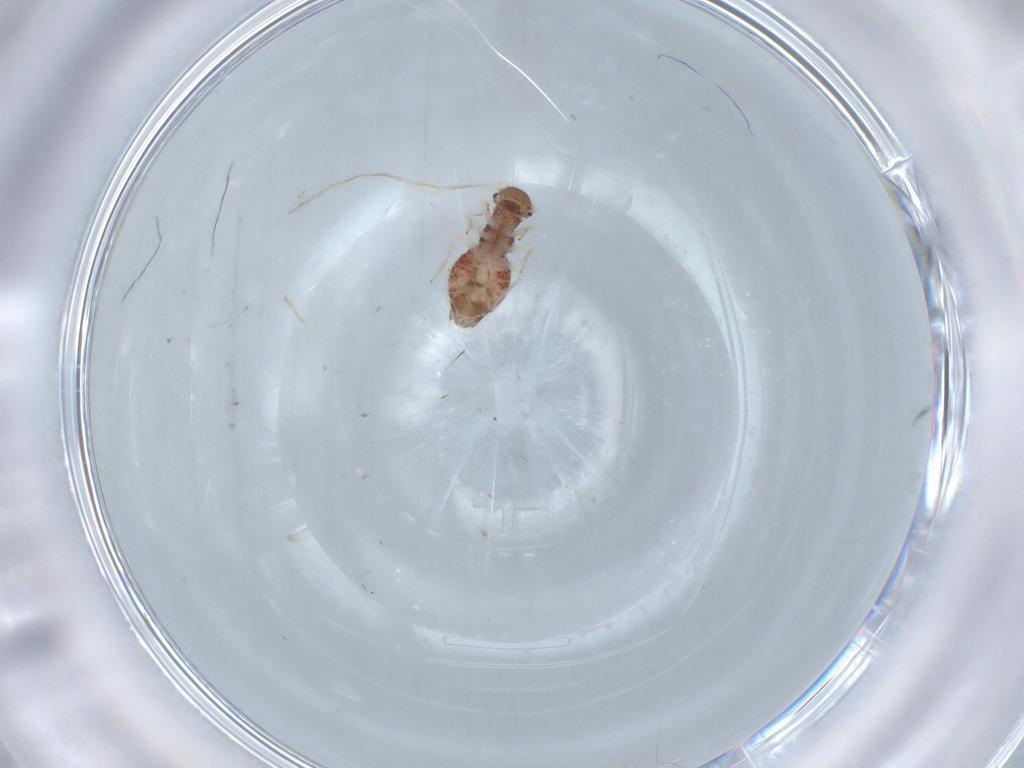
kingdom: Animalia
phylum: Arthropoda
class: Insecta
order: Psocodea
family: Archipsocidae
